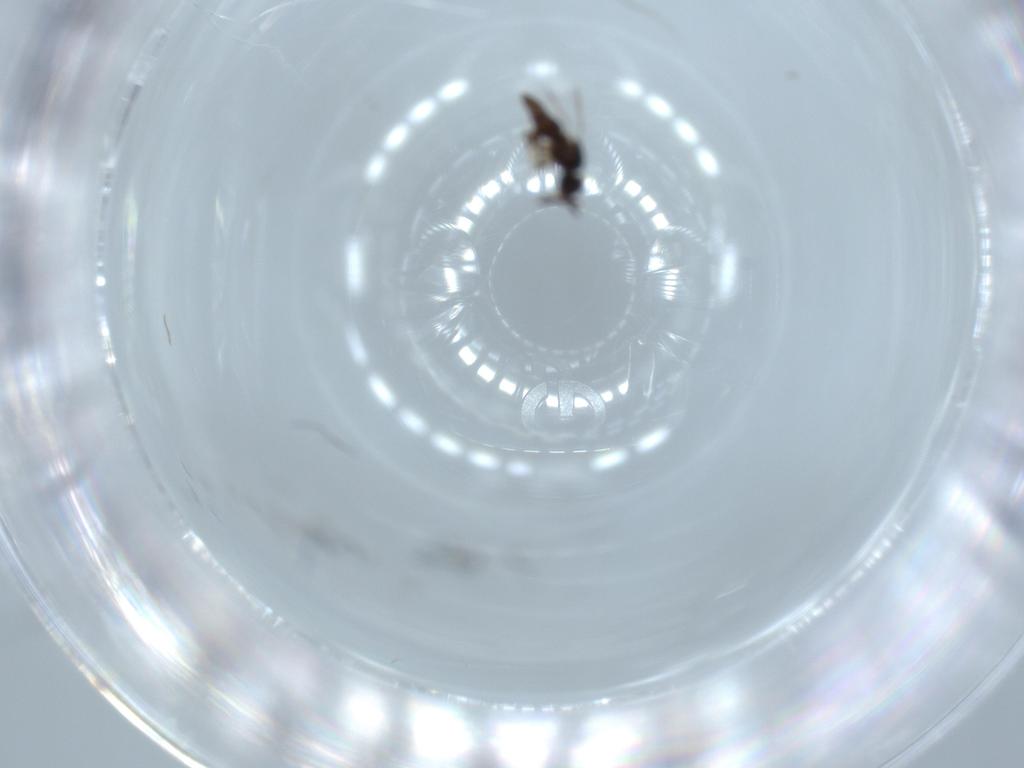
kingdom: Animalia
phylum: Arthropoda
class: Insecta
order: Hymenoptera
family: Ceraphronidae
